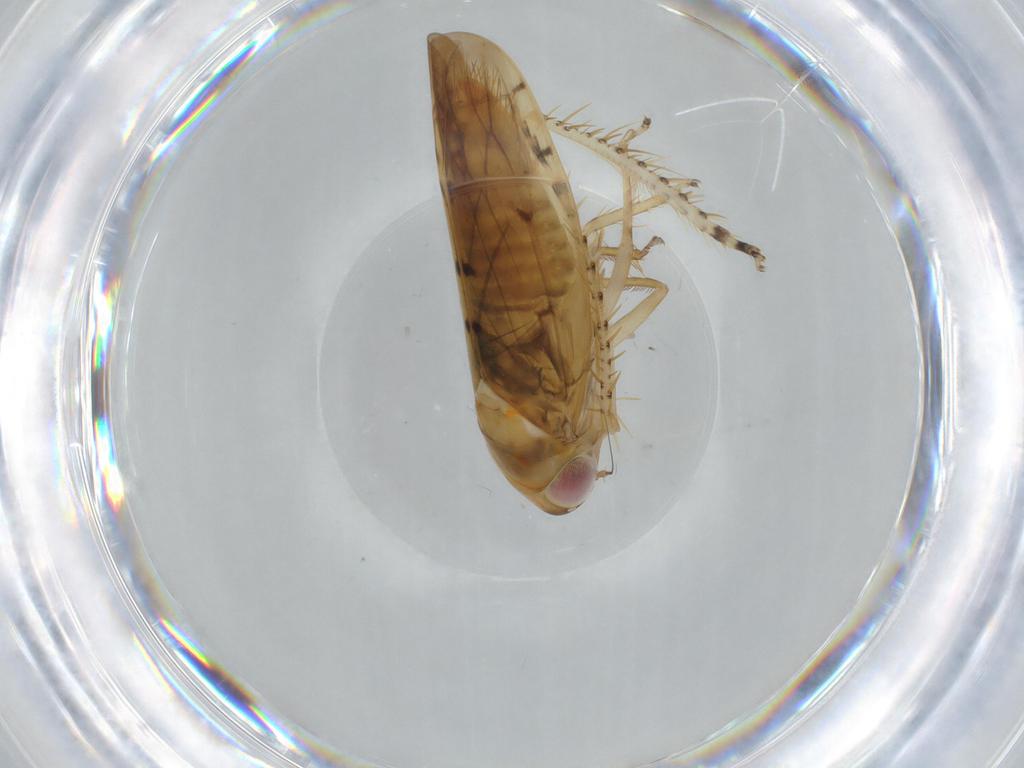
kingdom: Animalia
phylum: Arthropoda
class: Insecta
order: Hemiptera
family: Cicadellidae
